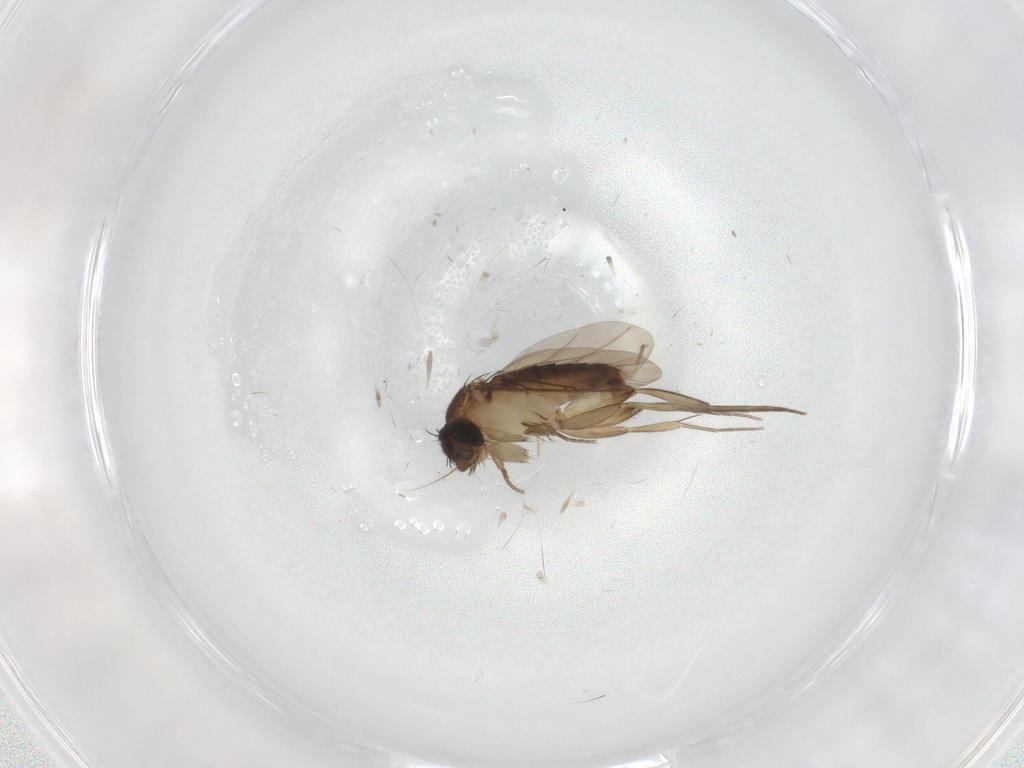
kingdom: Animalia
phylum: Arthropoda
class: Insecta
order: Diptera
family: Phoridae
